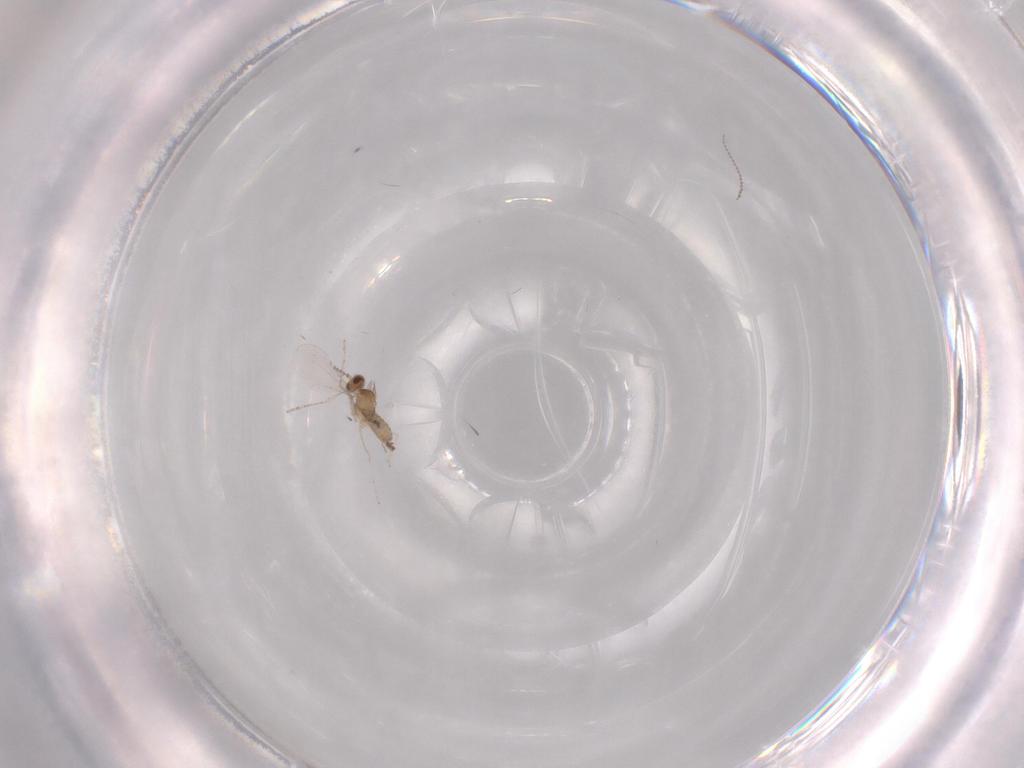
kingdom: Animalia
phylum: Arthropoda
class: Insecta
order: Diptera
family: Cecidomyiidae
